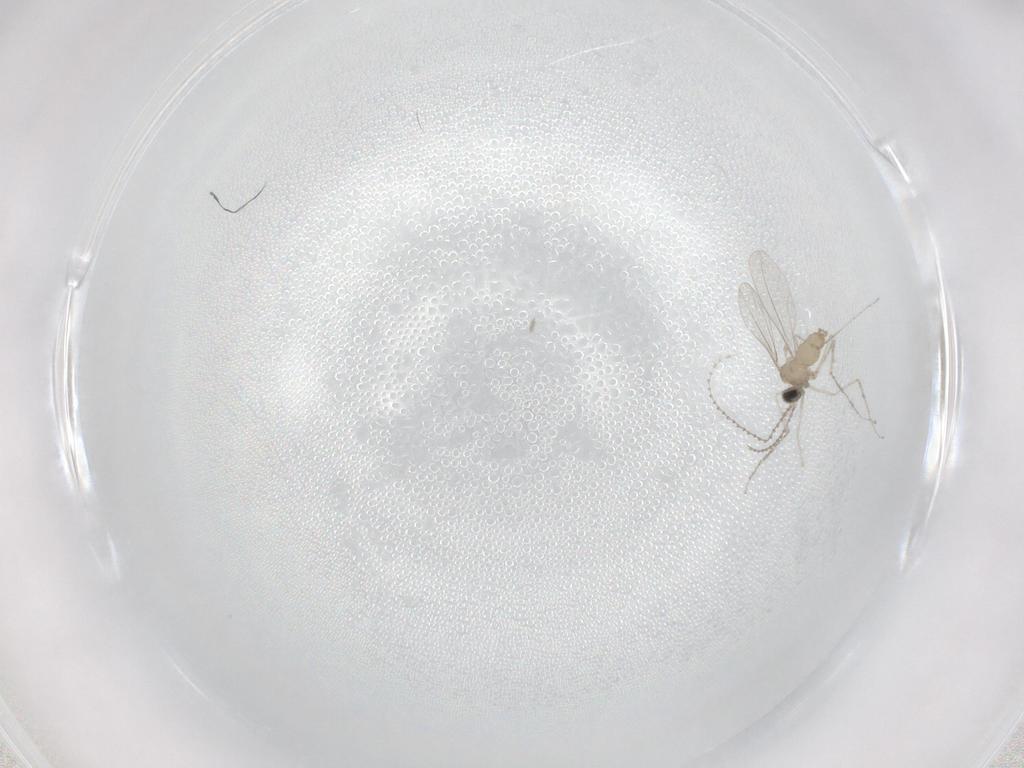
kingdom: Animalia
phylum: Arthropoda
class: Insecta
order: Diptera
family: Cecidomyiidae
